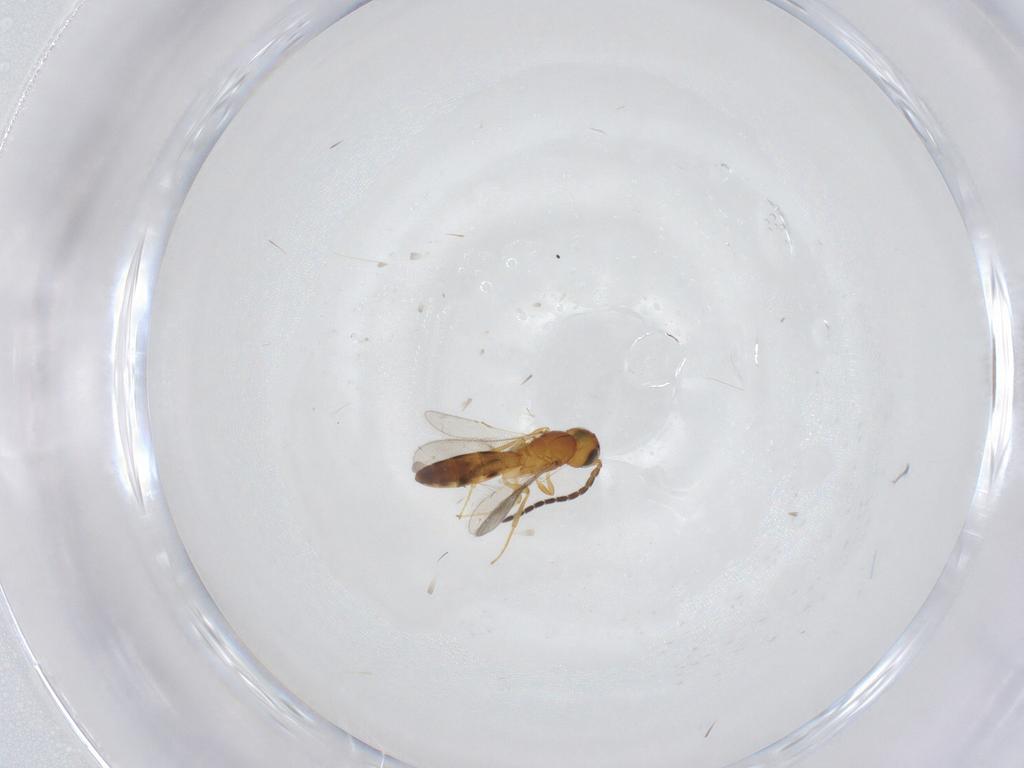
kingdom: Animalia
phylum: Arthropoda
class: Insecta
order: Hymenoptera
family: Scelionidae
